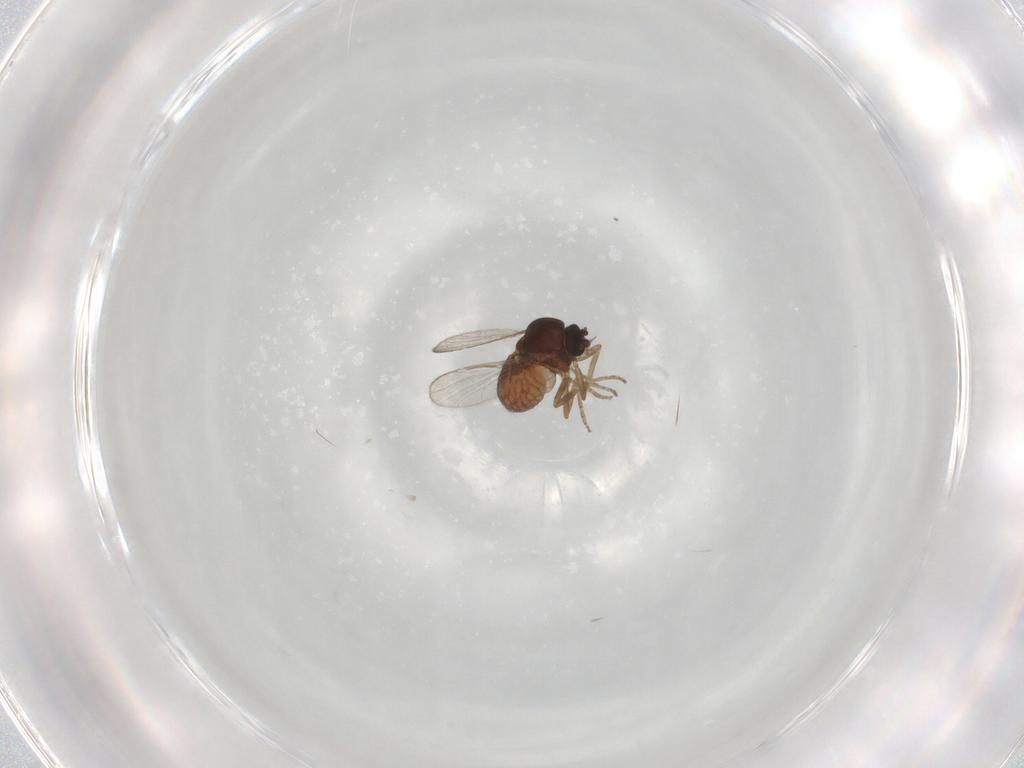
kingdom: Animalia
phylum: Arthropoda
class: Insecta
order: Diptera
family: Ceratopogonidae
